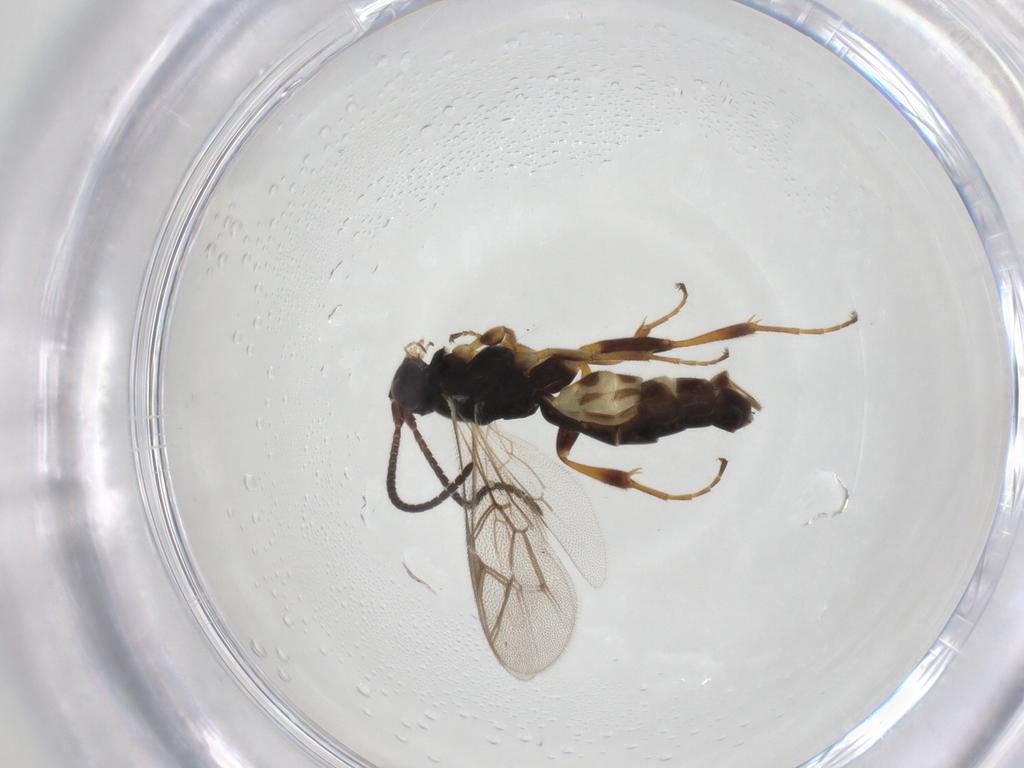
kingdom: Animalia
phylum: Arthropoda
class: Insecta
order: Hymenoptera
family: Ichneumonidae
